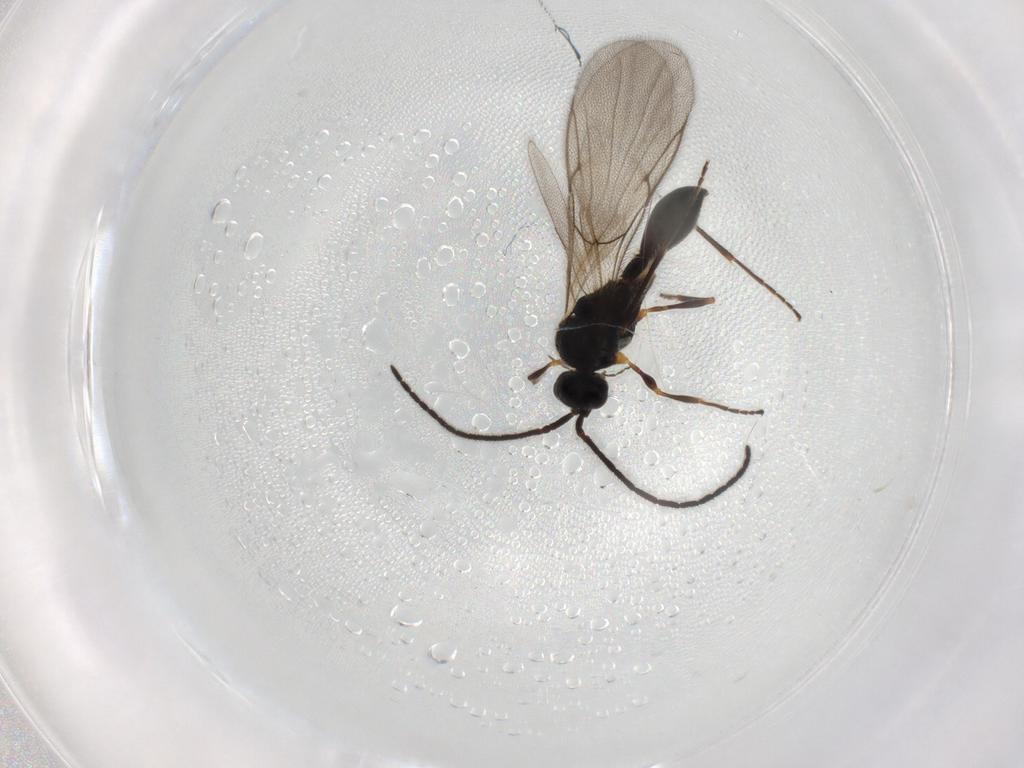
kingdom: Animalia
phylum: Arthropoda
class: Insecta
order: Hymenoptera
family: Diapriidae
